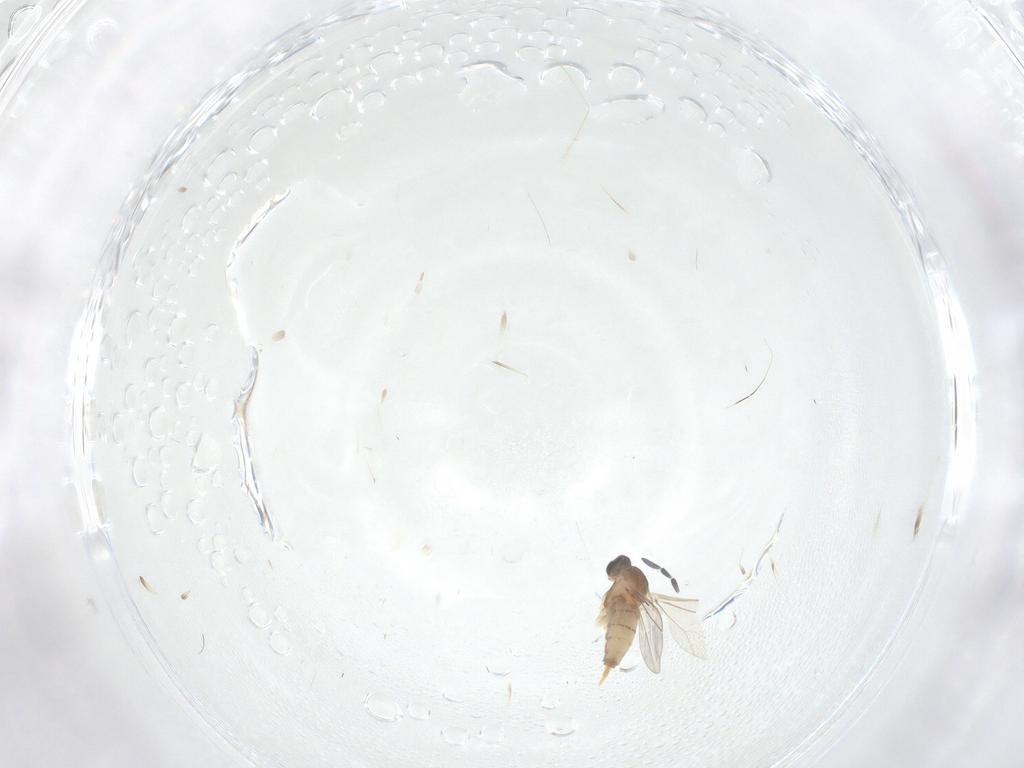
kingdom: Animalia
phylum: Arthropoda
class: Insecta
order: Diptera
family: Cecidomyiidae
